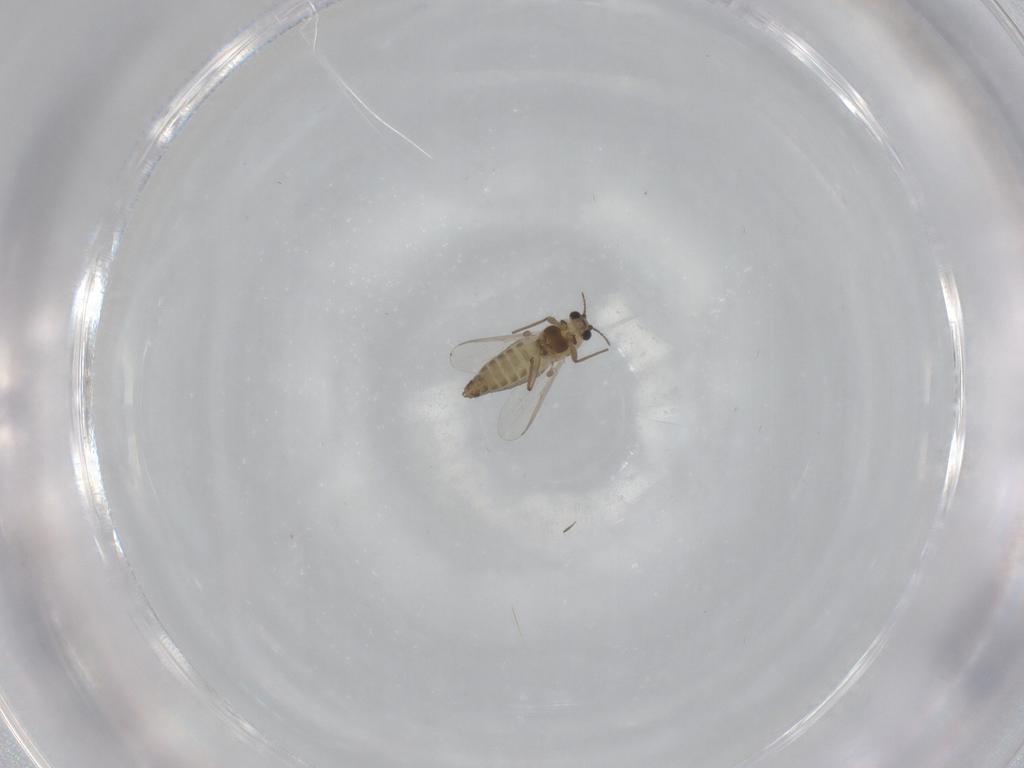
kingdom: Animalia
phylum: Arthropoda
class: Insecta
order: Diptera
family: Chironomidae
